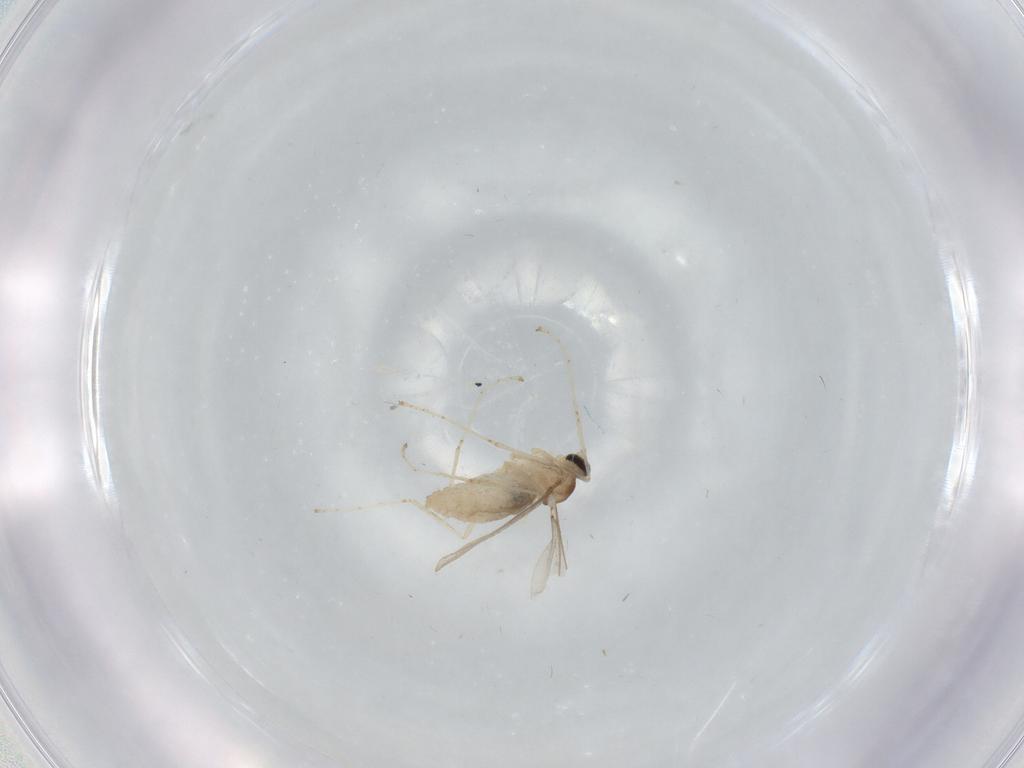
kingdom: Animalia
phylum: Arthropoda
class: Insecta
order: Diptera
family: Cecidomyiidae
